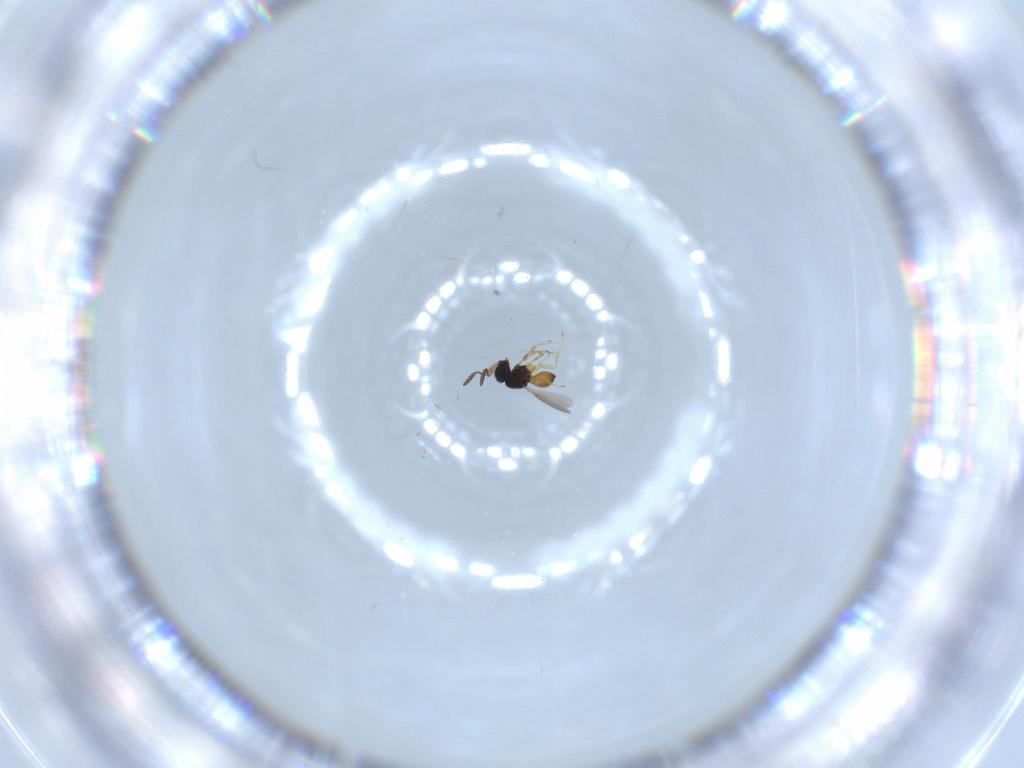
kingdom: Animalia
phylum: Arthropoda
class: Insecta
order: Hymenoptera
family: Scelionidae
